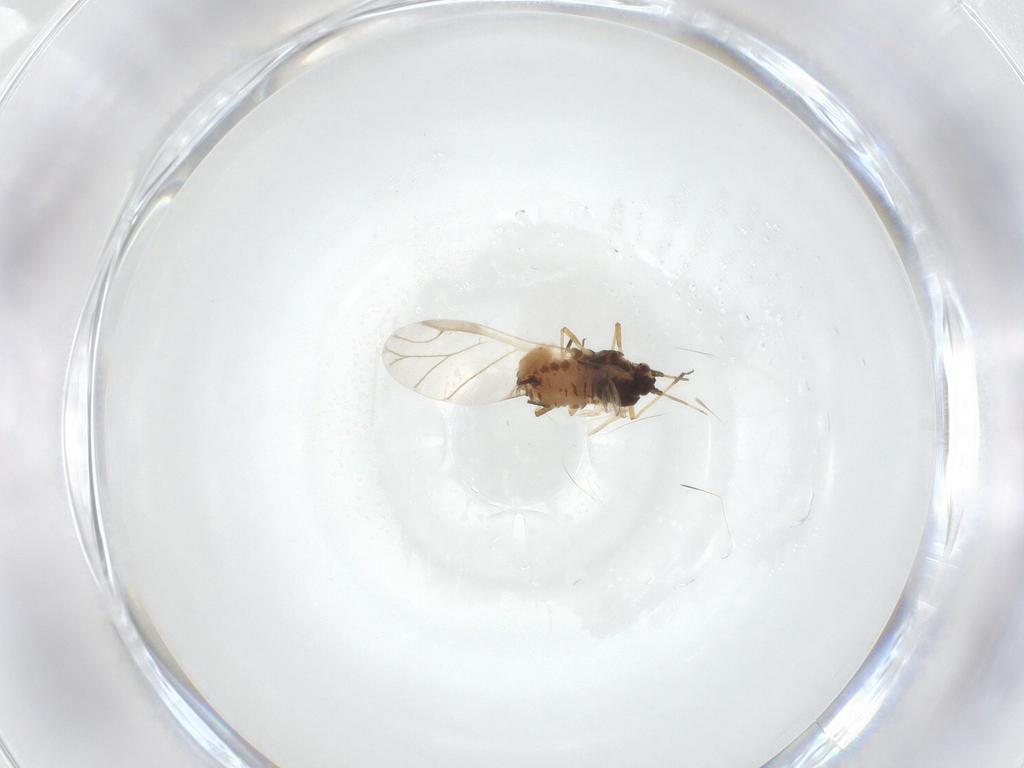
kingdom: Animalia
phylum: Arthropoda
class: Insecta
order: Hemiptera
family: Aphididae
